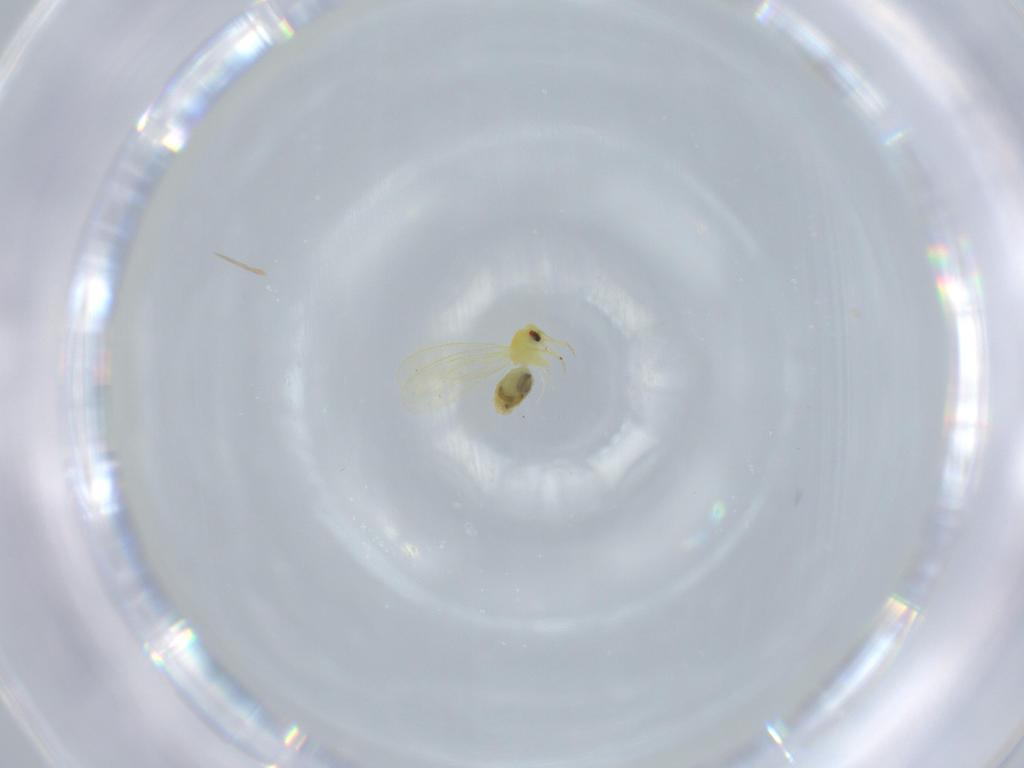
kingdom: Animalia
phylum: Arthropoda
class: Insecta
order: Hemiptera
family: Aleyrodidae
